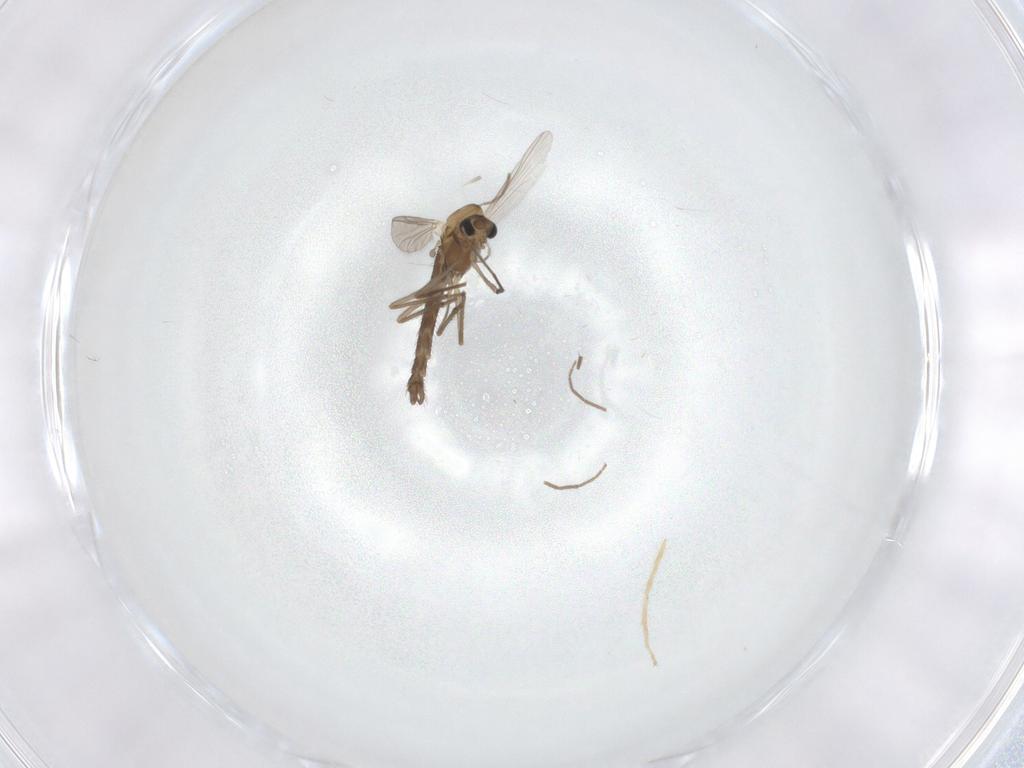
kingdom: Animalia
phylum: Arthropoda
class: Insecta
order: Diptera
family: Chironomidae
